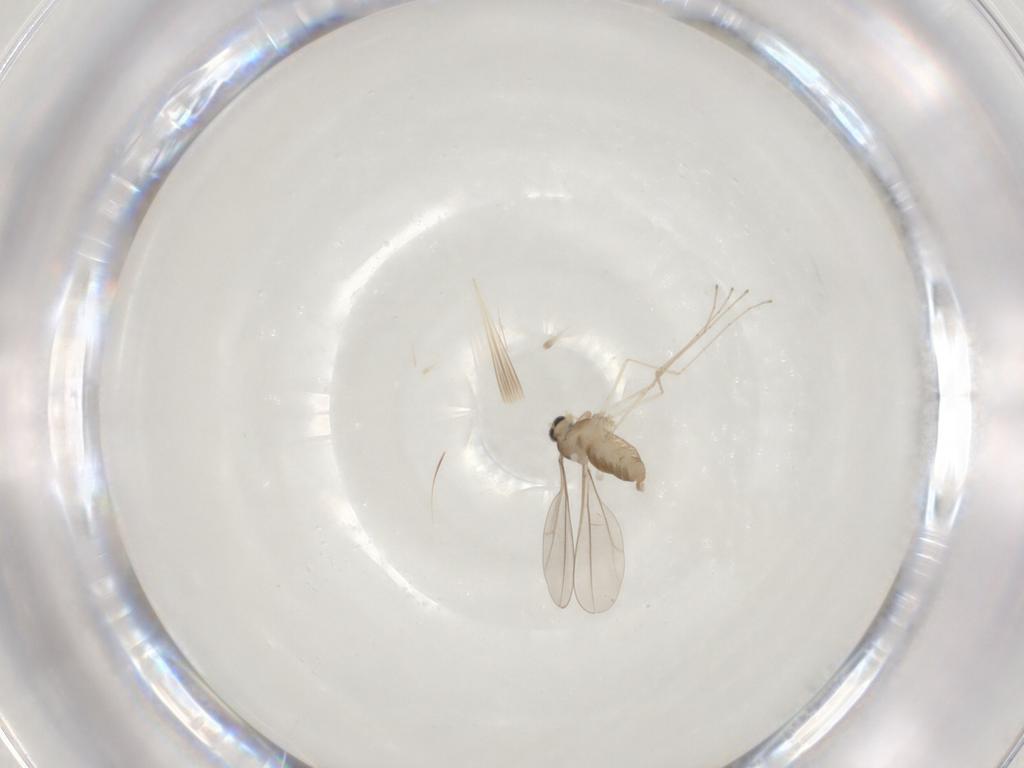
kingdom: Animalia
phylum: Arthropoda
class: Insecta
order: Diptera
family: Cecidomyiidae
